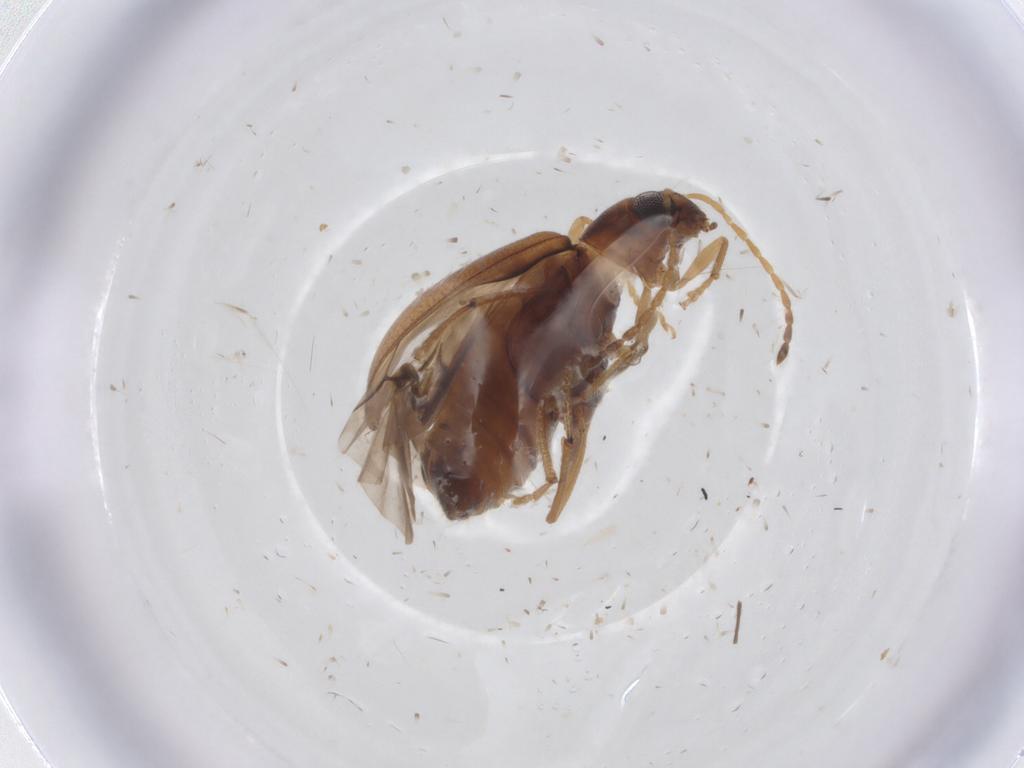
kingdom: Animalia
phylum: Arthropoda
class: Insecta
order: Coleoptera
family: Chrysomelidae
